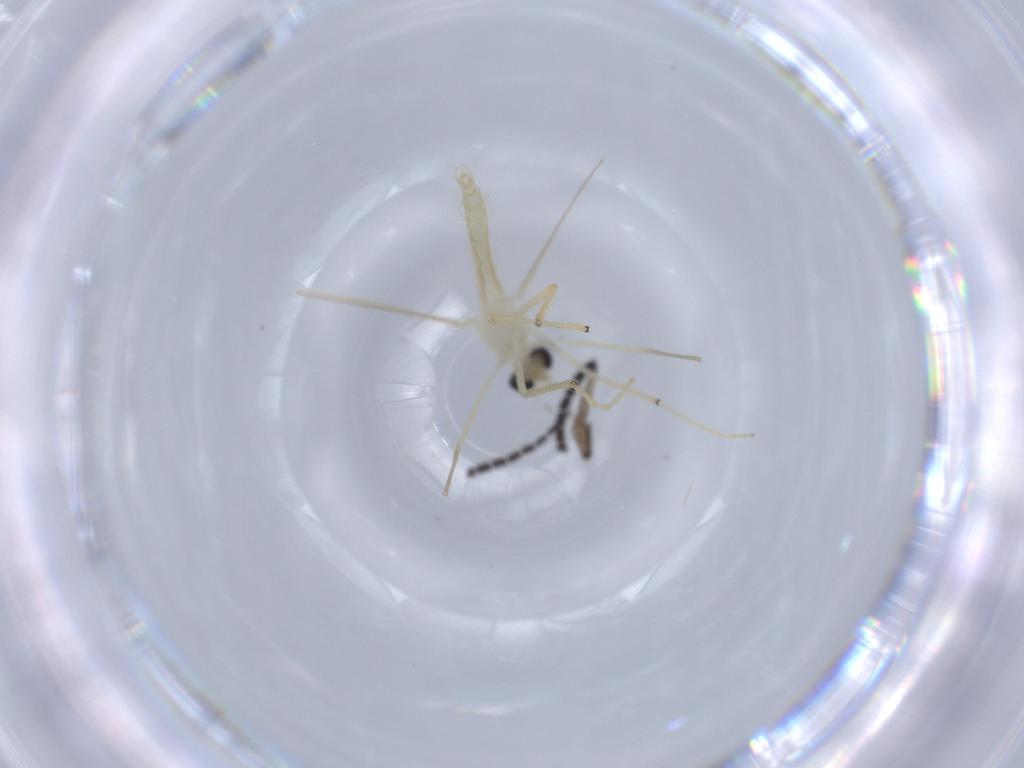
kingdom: Animalia
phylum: Arthropoda
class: Insecta
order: Diptera
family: Chironomidae
